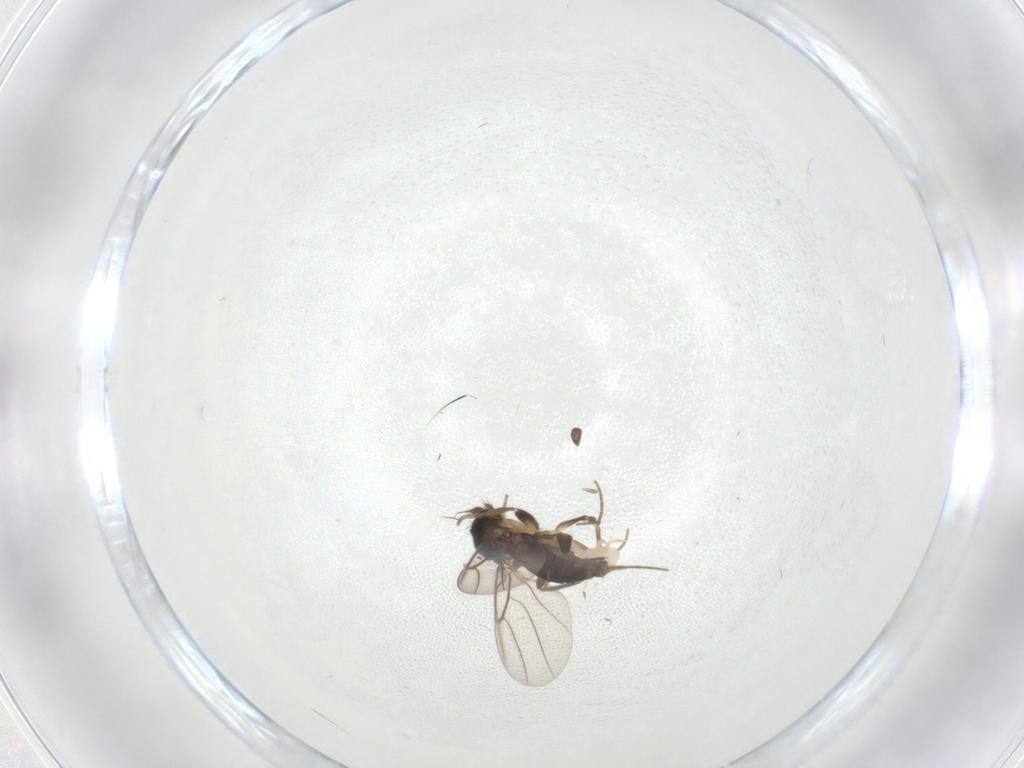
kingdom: Animalia
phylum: Arthropoda
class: Insecta
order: Diptera
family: Phoridae
